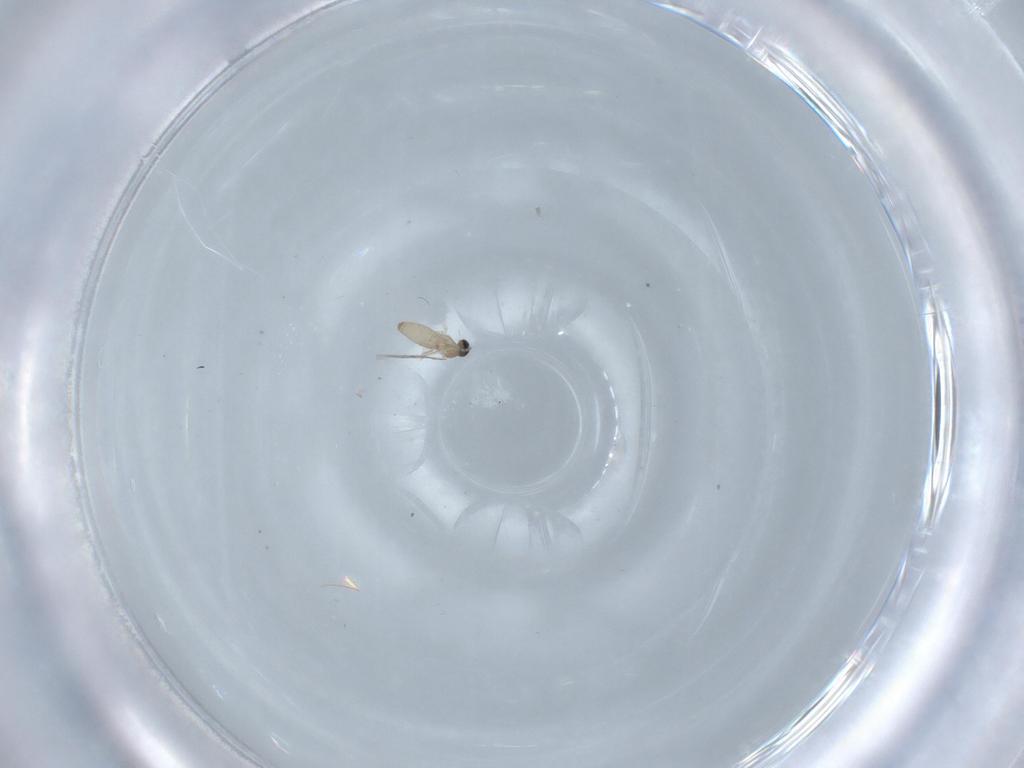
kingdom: Animalia
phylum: Arthropoda
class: Insecta
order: Diptera
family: Cecidomyiidae
